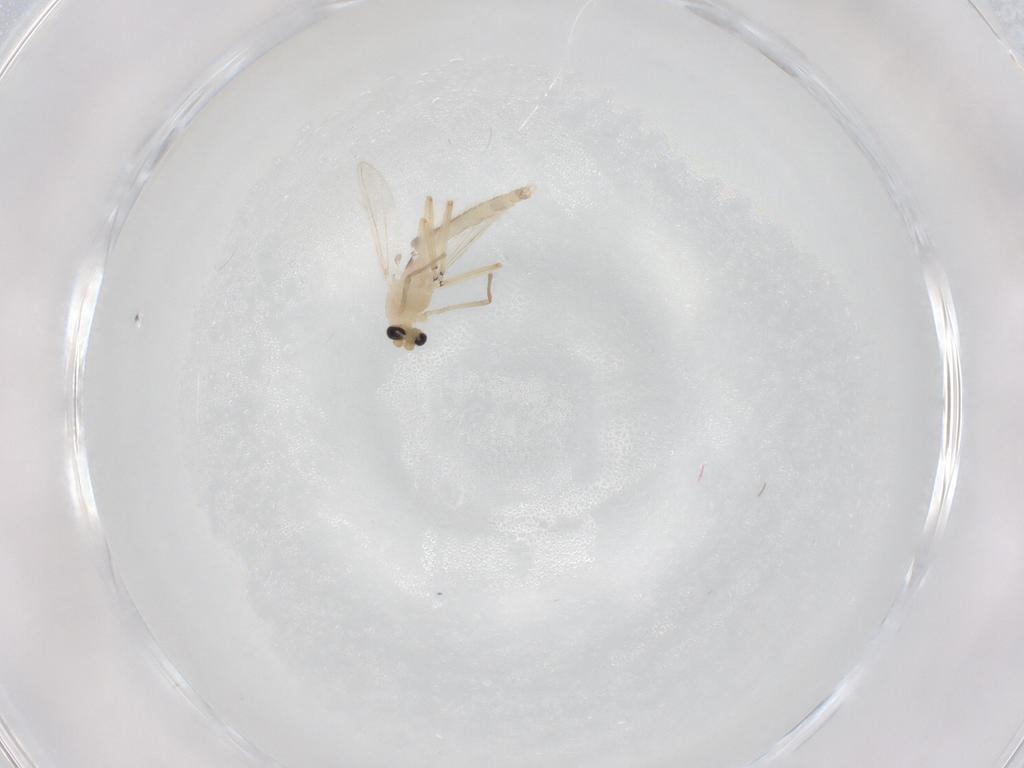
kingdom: Animalia
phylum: Arthropoda
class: Insecta
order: Diptera
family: Chironomidae
